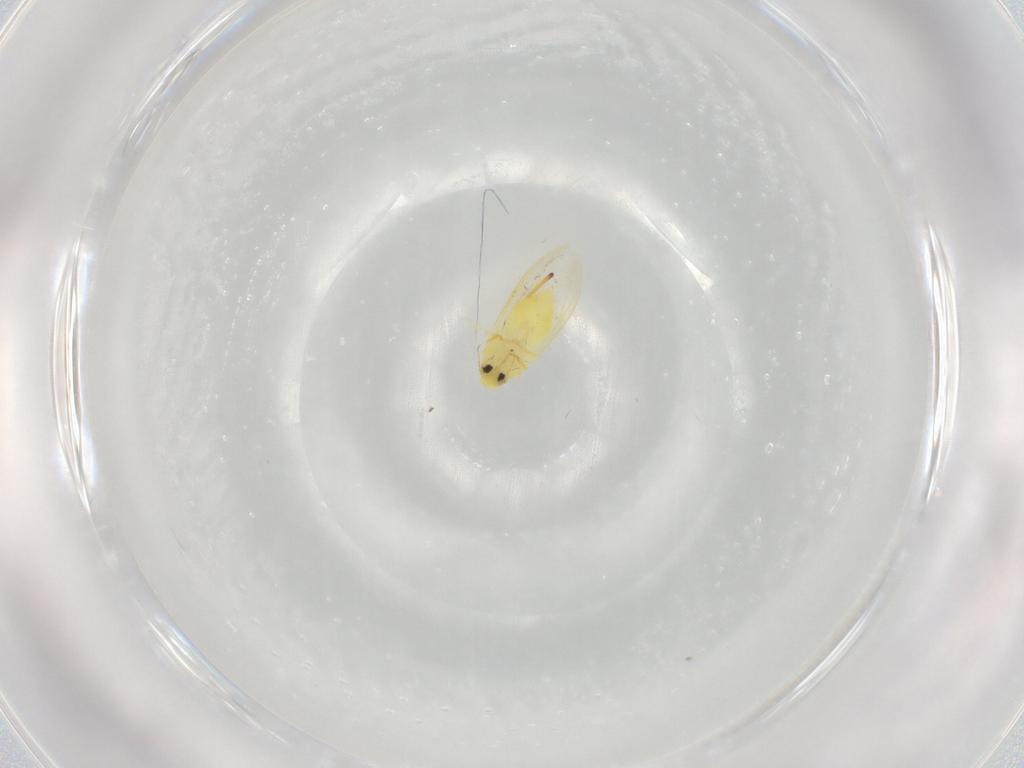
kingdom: Animalia
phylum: Arthropoda
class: Insecta
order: Hemiptera
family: Aleyrodidae
